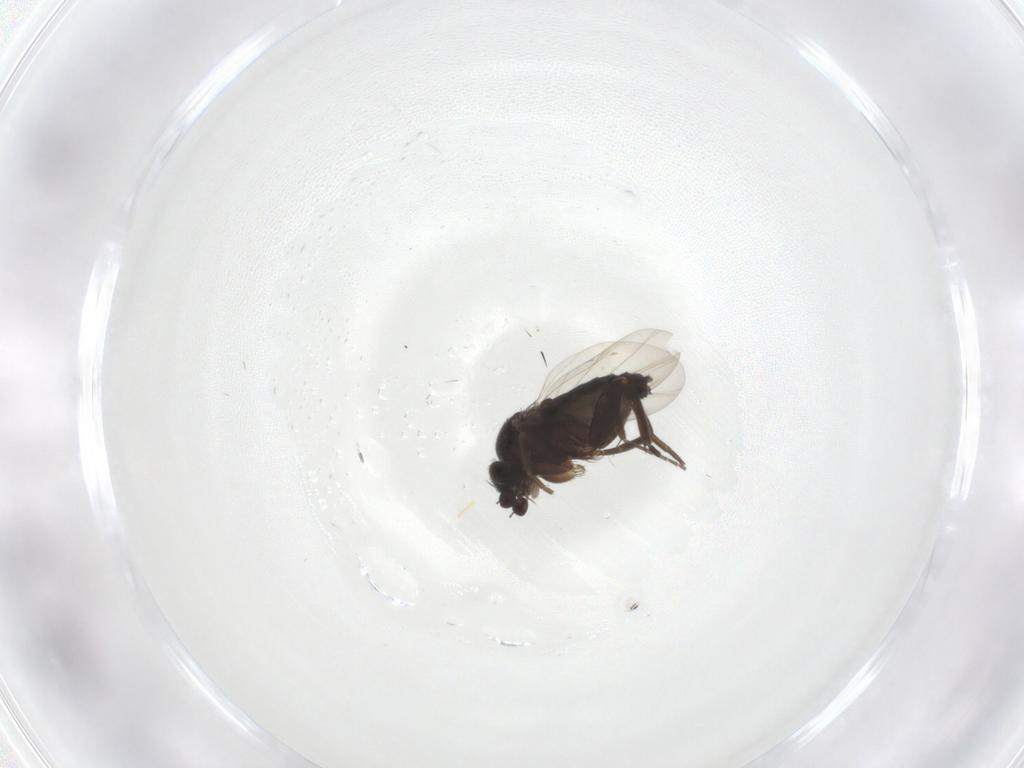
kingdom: Animalia
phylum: Arthropoda
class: Insecta
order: Diptera
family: Phoridae
